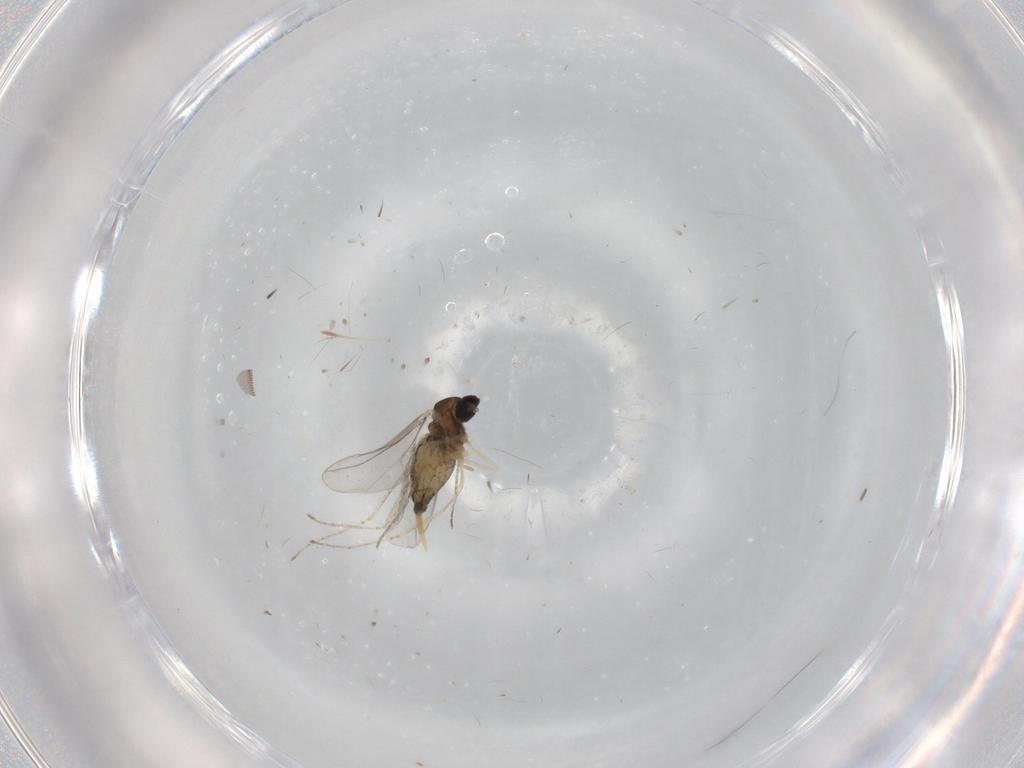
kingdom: Animalia
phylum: Arthropoda
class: Insecta
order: Diptera
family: Cecidomyiidae
